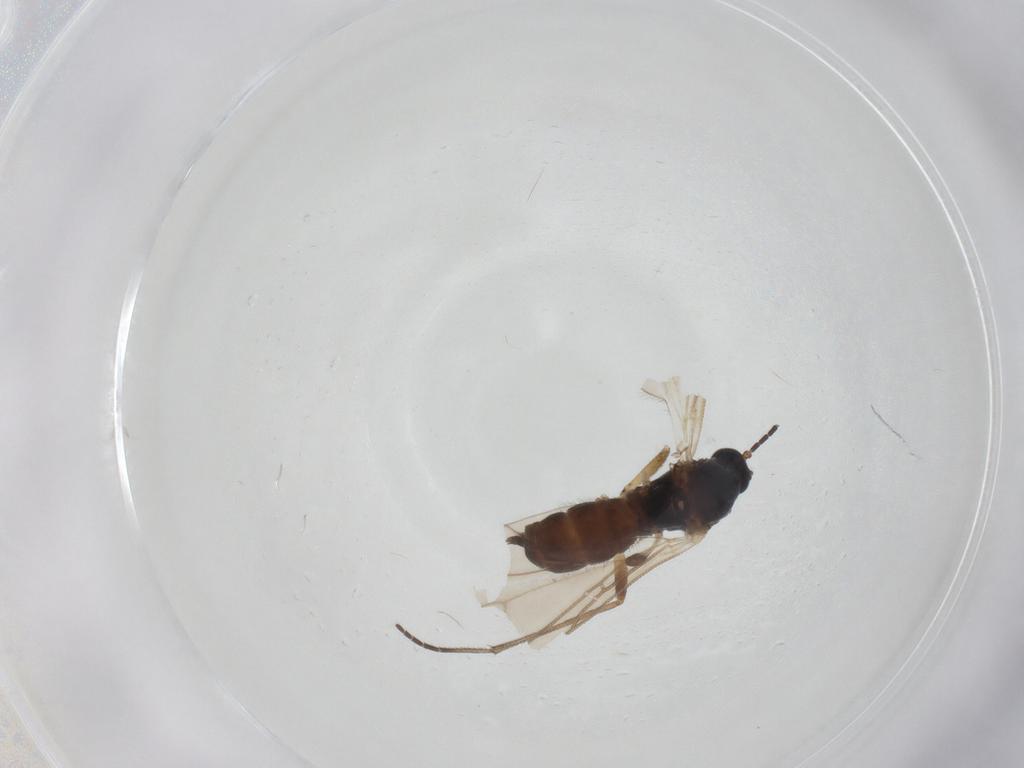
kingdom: Animalia
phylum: Arthropoda
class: Insecta
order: Diptera
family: Sciaridae
